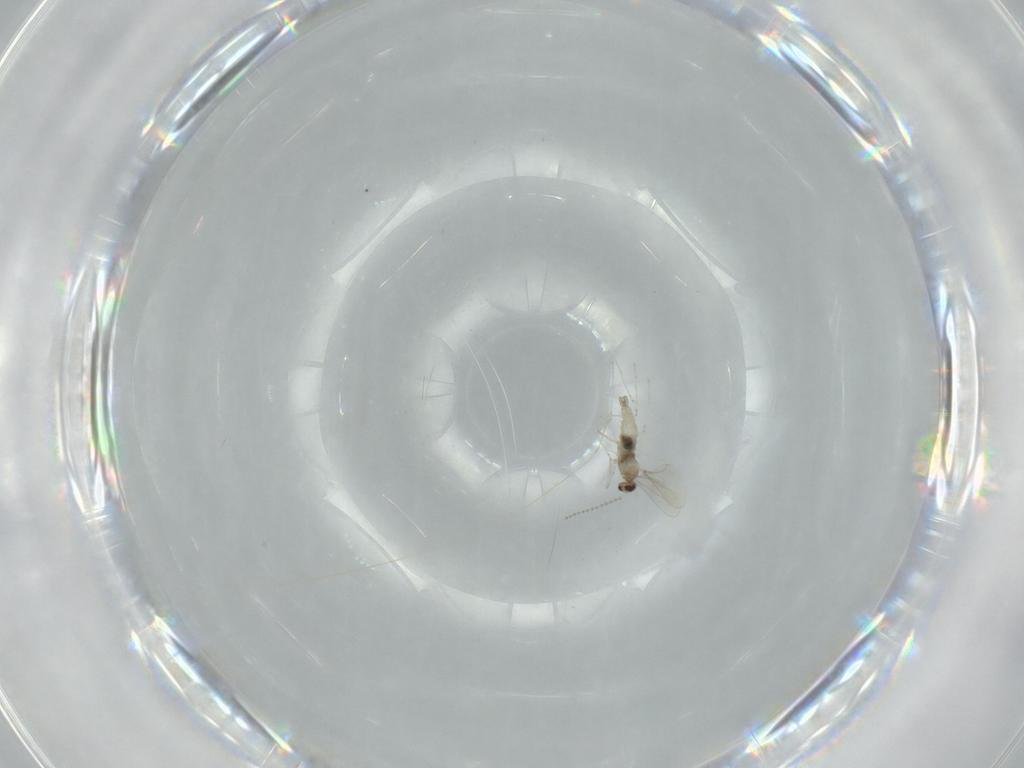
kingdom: Animalia
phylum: Arthropoda
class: Insecta
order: Diptera
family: Cecidomyiidae
